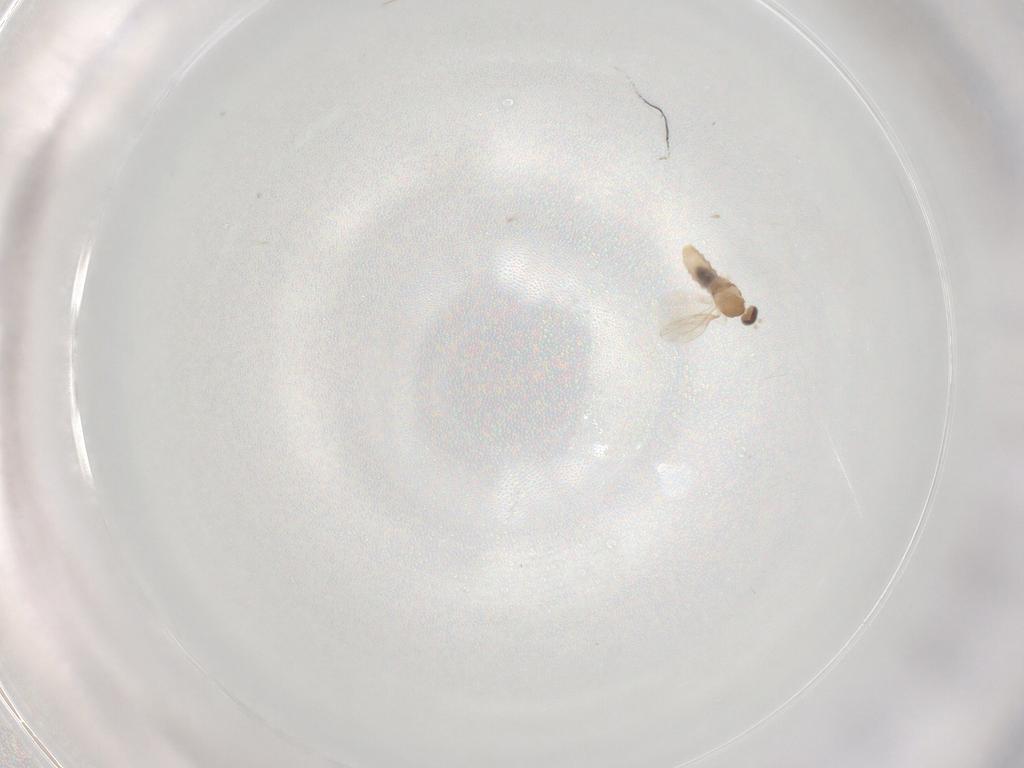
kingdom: Animalia
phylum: Arthropoda
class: Insecta
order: Diptera
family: Cecidomyiidae
